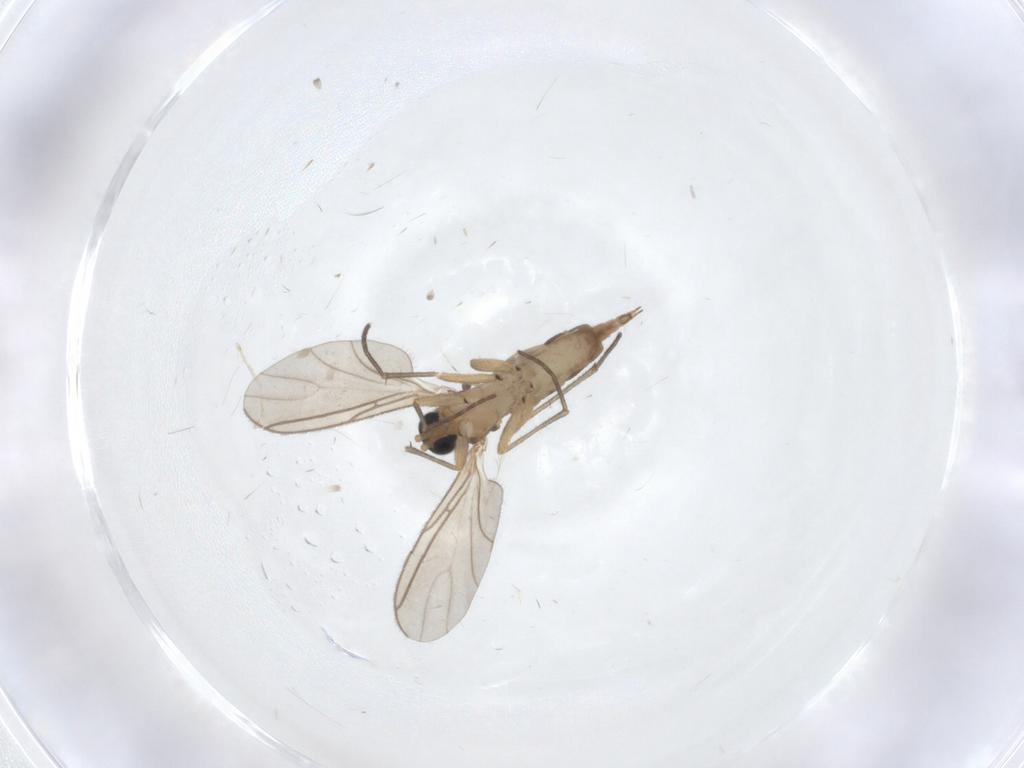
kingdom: Animalia
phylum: Arthropoda
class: Insecta
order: Diptera
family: Cecidomyiidae
